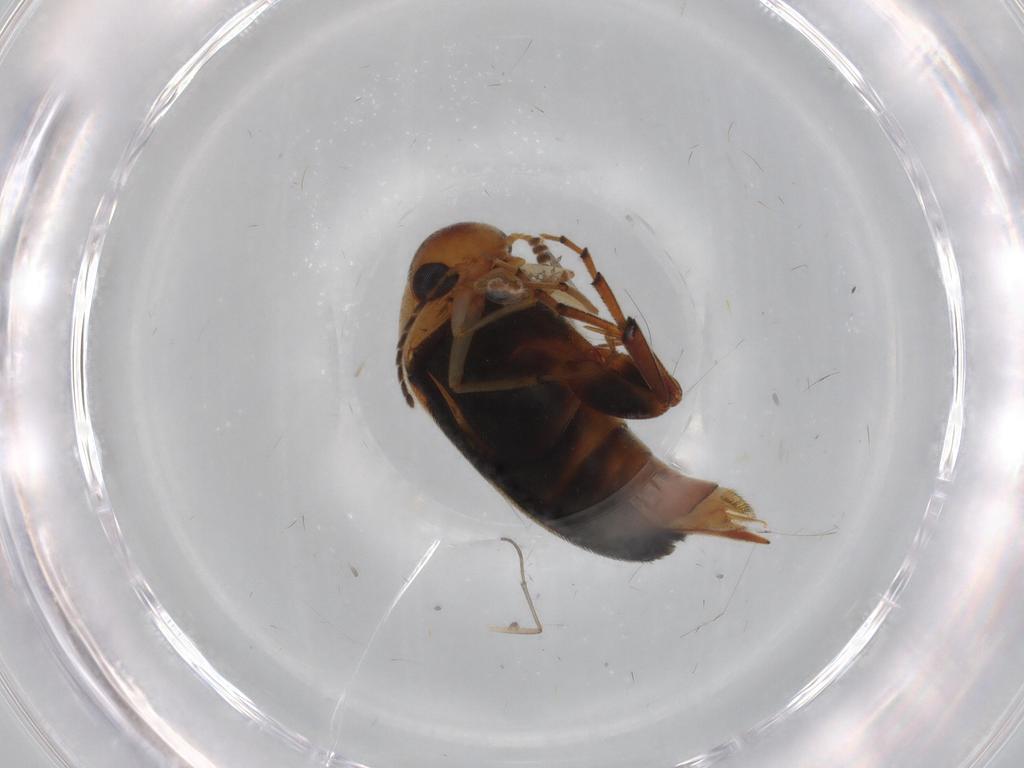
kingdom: Animalia
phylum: Arthropoda
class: Insecta
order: Coleoptera
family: Mordellidae
